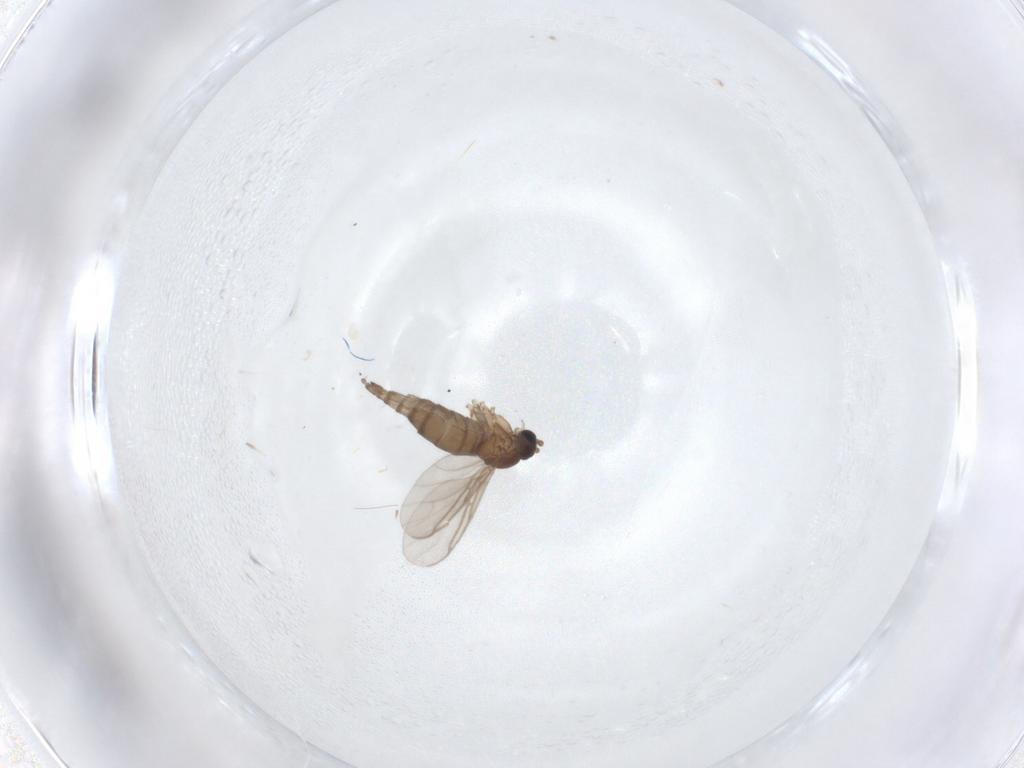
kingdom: Animalia
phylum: Arthropoda
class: Insecta
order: Diptera
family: Sciaridae
